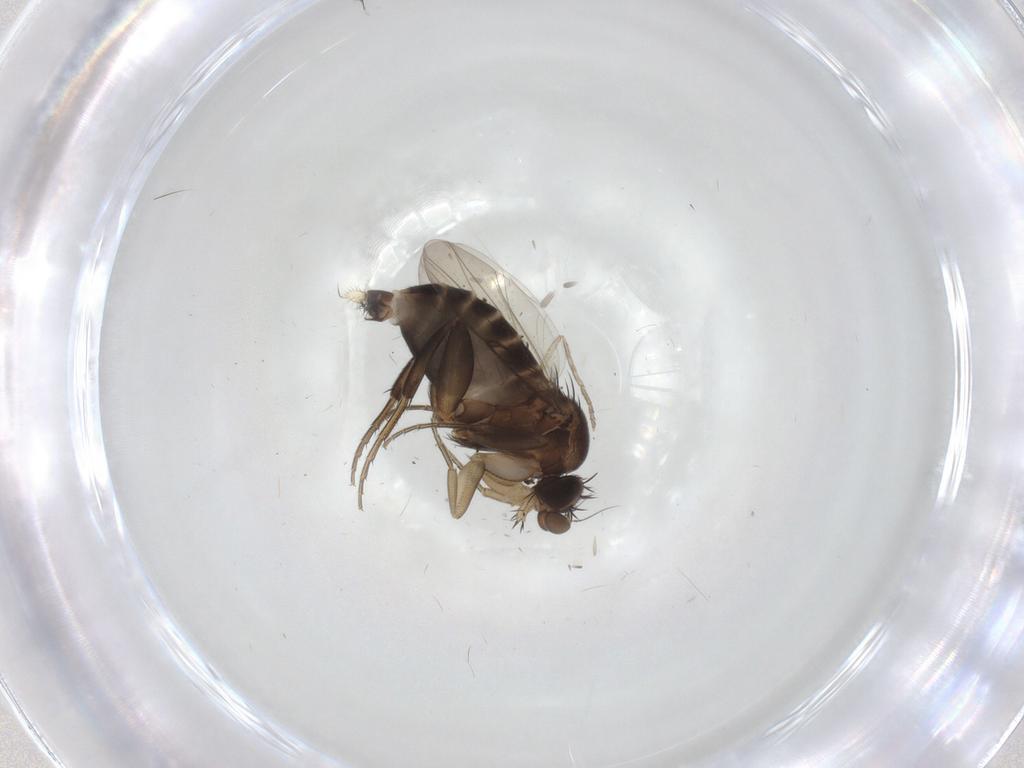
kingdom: Animalia
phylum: Arthropoda
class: Insecta
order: Diptera
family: Phoridae
